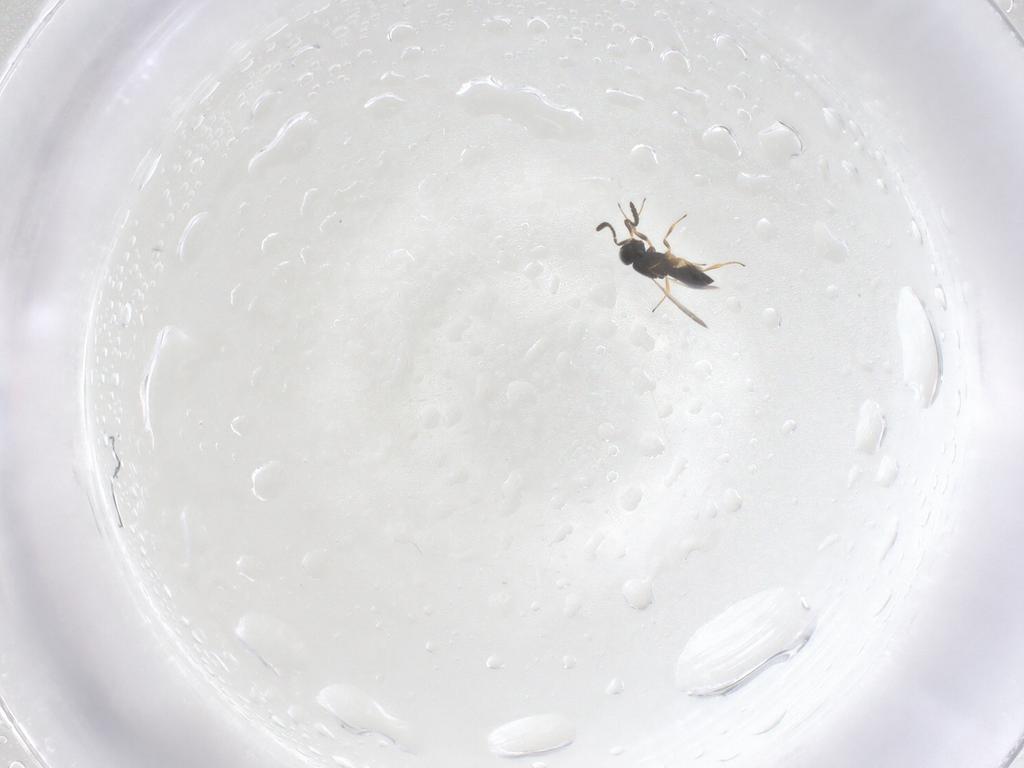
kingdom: Animalia
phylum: Arthropoda
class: Insecta
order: Hymenoptera
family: Scelionidae
